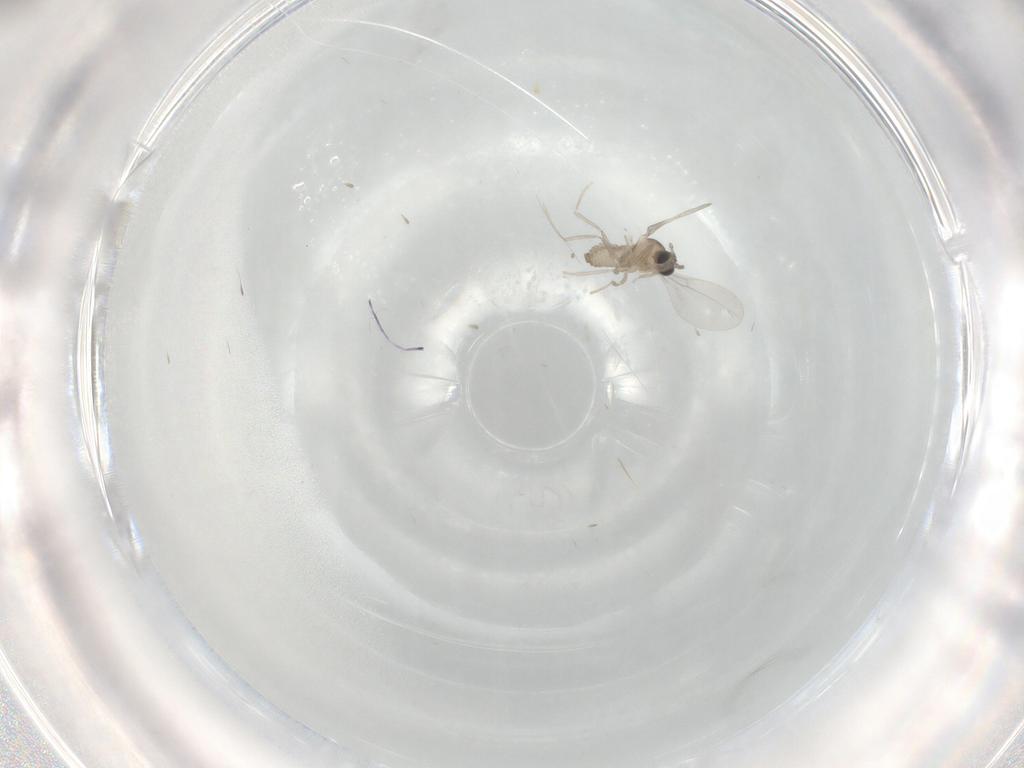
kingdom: Animalia
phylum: Arthropoda
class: Insecta
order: Diptera
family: Cecidomyiidae
